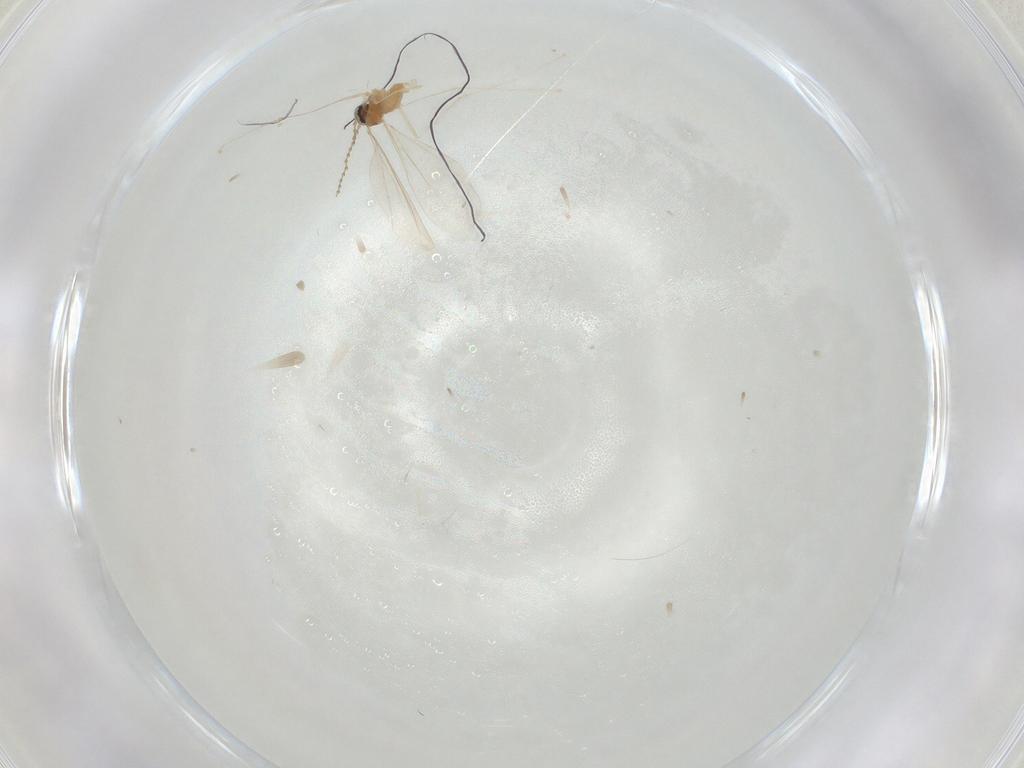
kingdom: Animalia
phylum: Arthropoda
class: Insecta
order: Diptera
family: Cecidomyiidae
